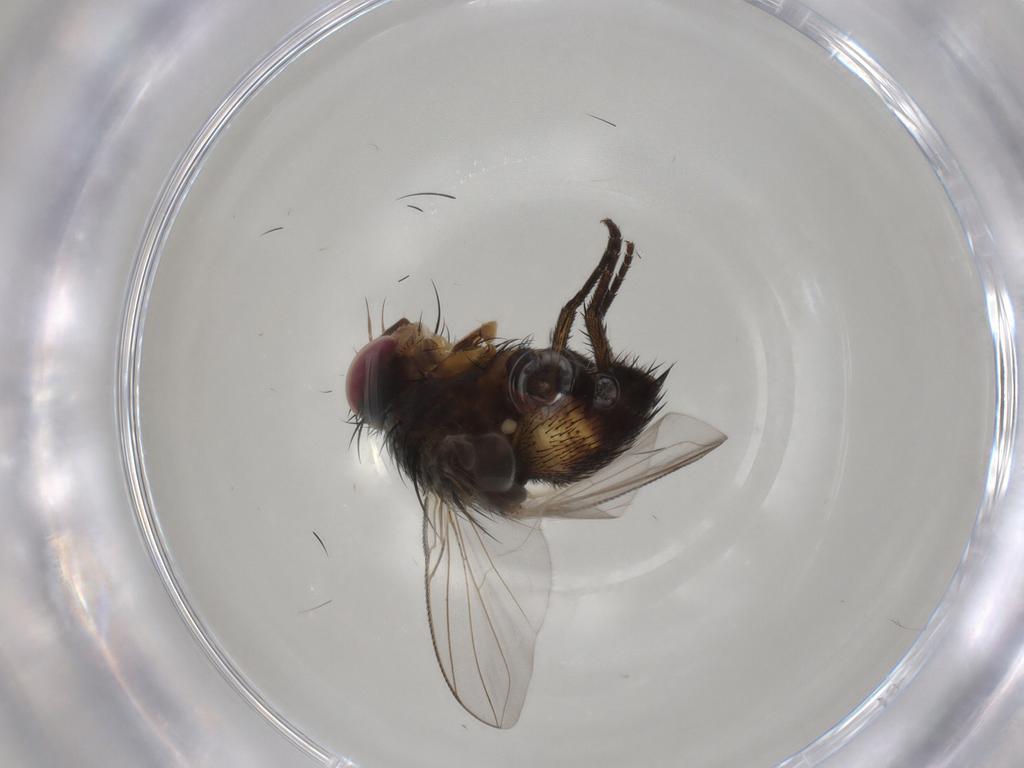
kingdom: Animalia
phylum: Arthropoda
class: Insecta
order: Diptera
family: Tachinidae
